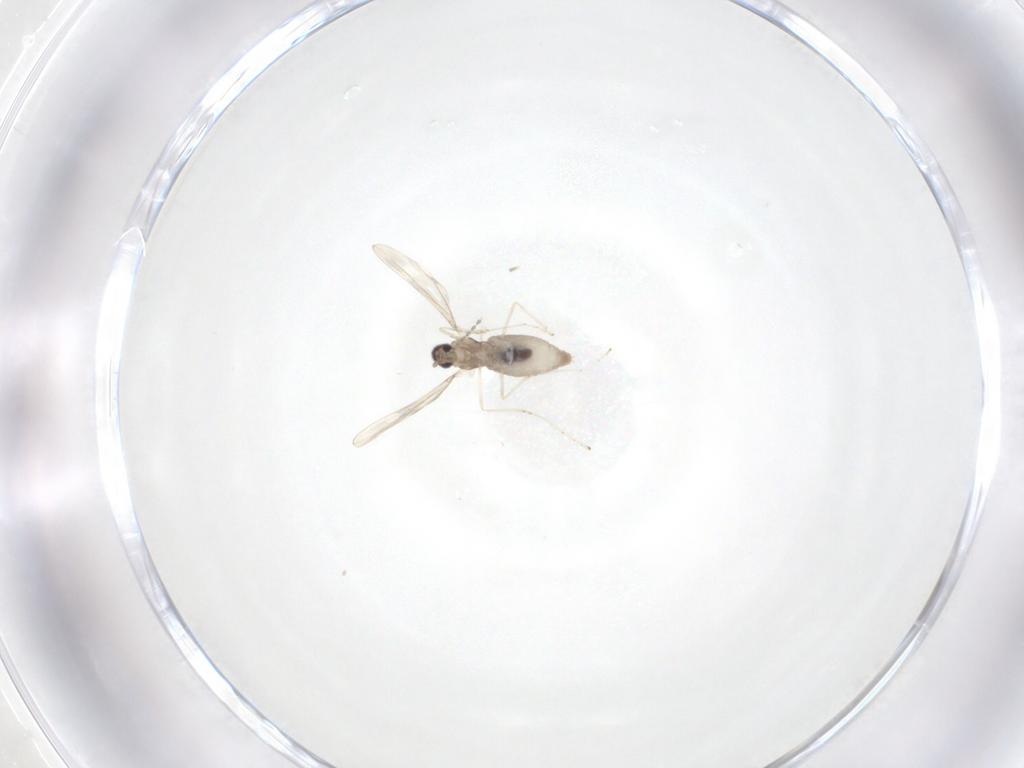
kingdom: Animalia
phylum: Arthropoda
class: Insecta
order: Diptera
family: Cecidomyiidae
